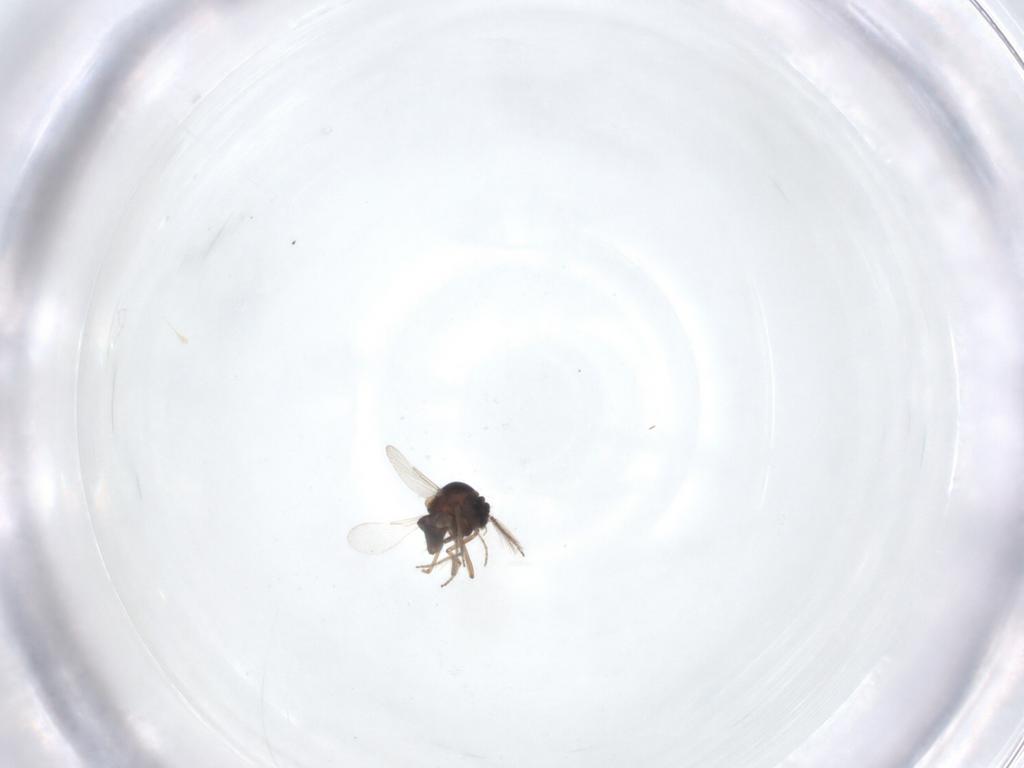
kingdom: Animalia
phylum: Arthropoda
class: Insecta
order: Diptera
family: Ceratopogonidae
